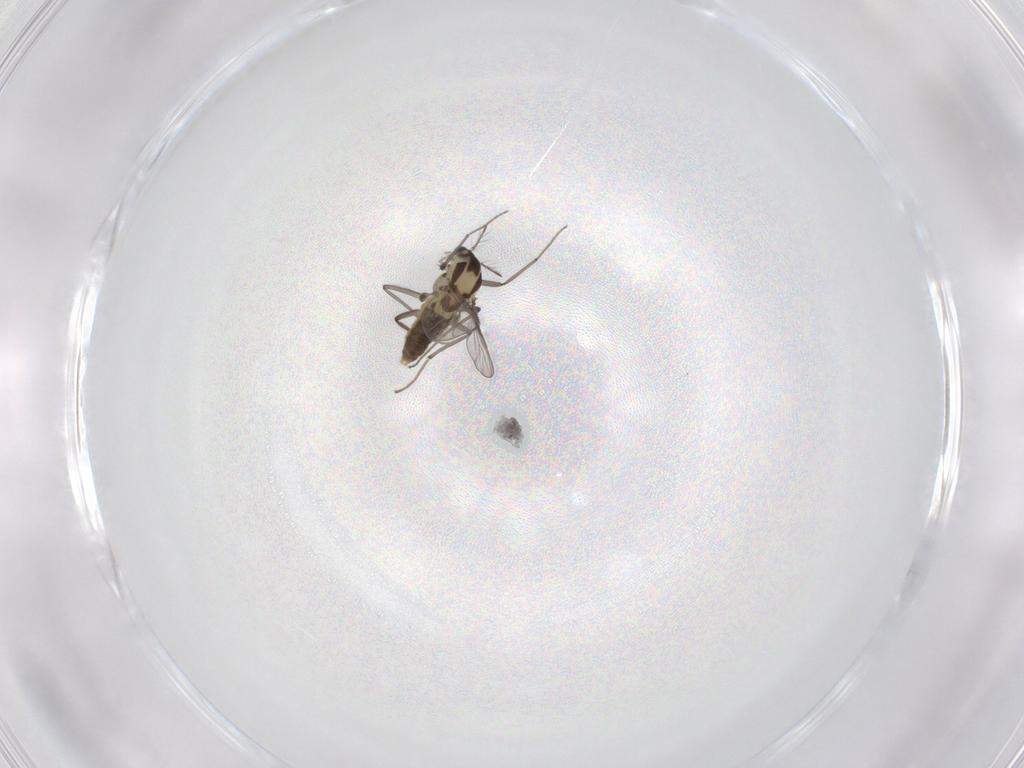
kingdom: Animalia
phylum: Arthropoda
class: Insecta
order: Diptera
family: Chironomidae
